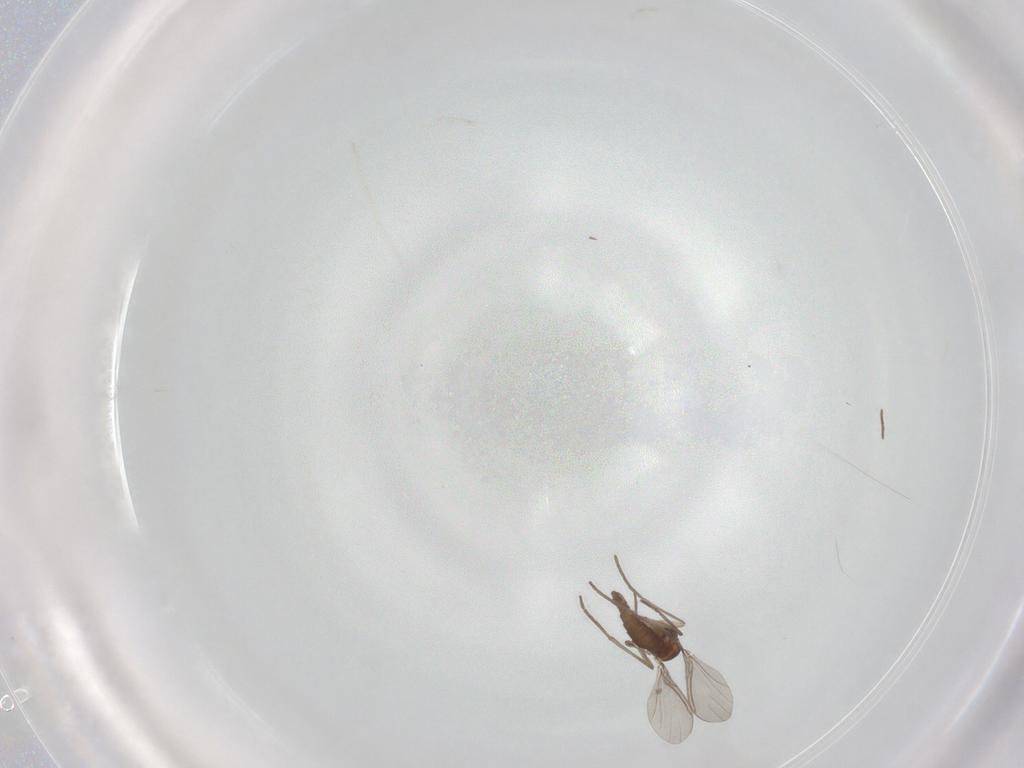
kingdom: Animalia
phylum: Arthropoda
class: Insecta
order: Diptera
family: Sciaridae
